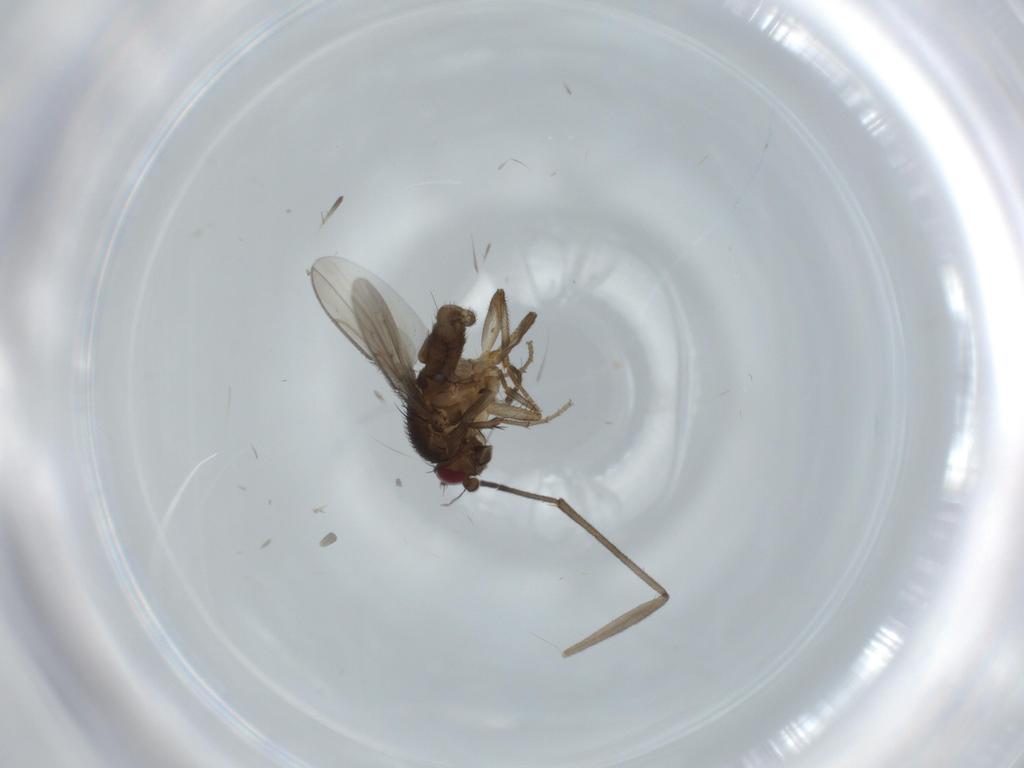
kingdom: Animalia
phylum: Arthropoda
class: Insecta
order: Diptera
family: Sphaeroceridae
